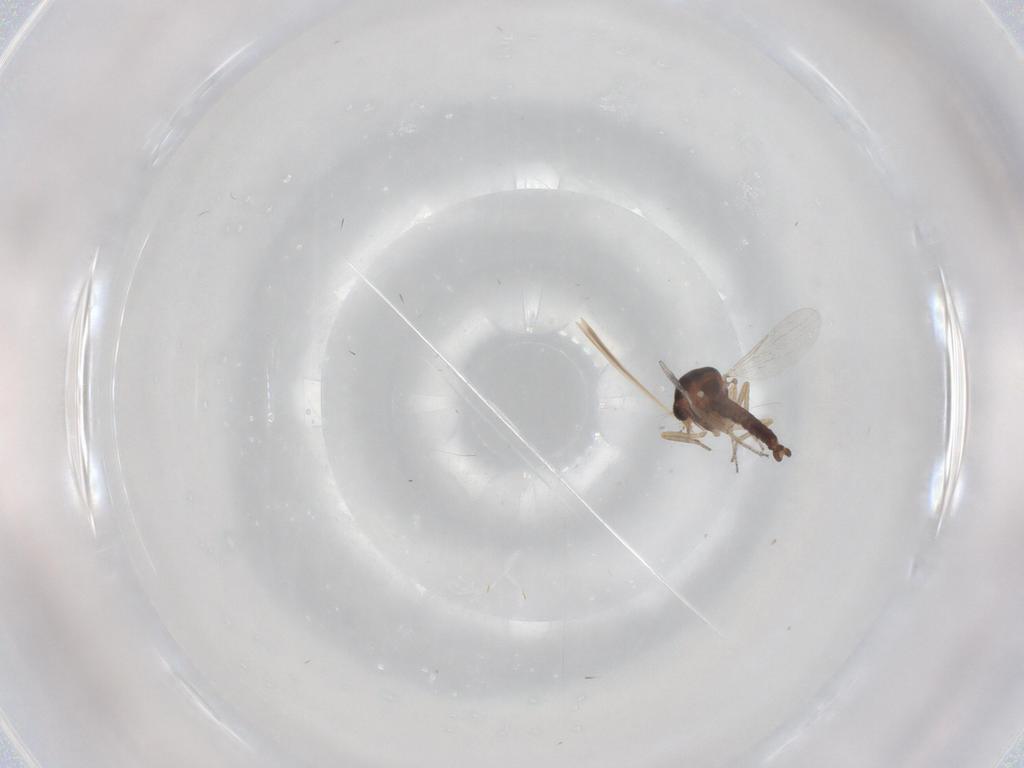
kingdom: Animalia
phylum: Arthropoda
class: Insecta
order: Diptera
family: Ceratopogonidae
